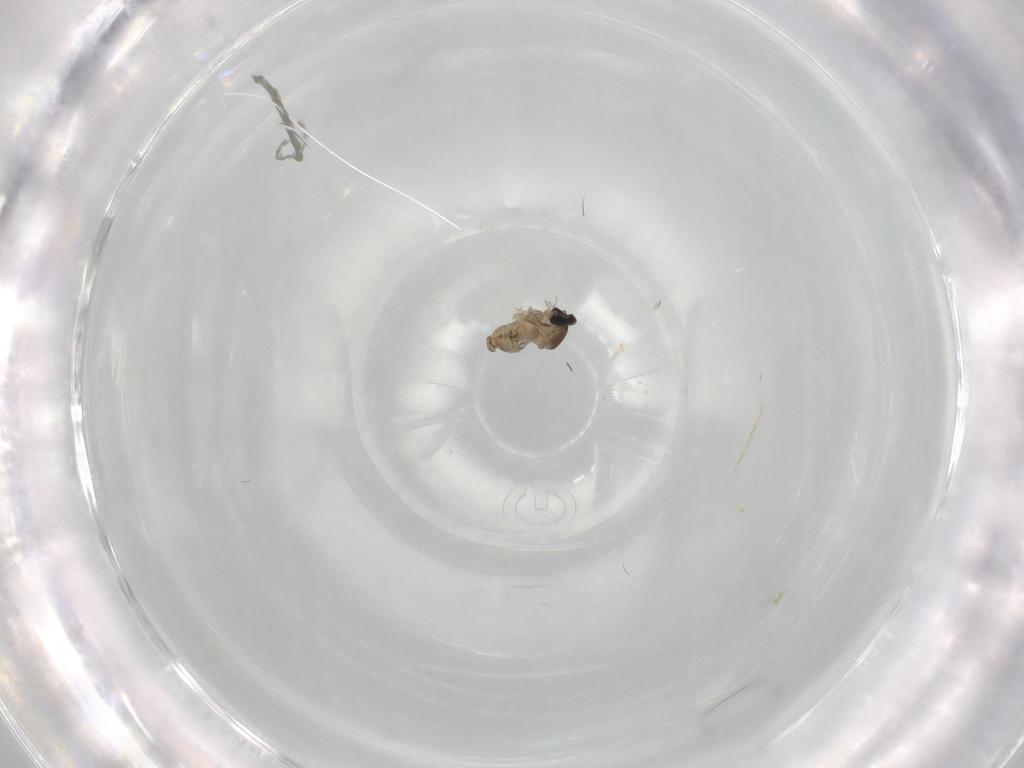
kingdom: Animalia
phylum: Arthropoda
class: Insecta
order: Diptera
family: Cecidomyiidae
